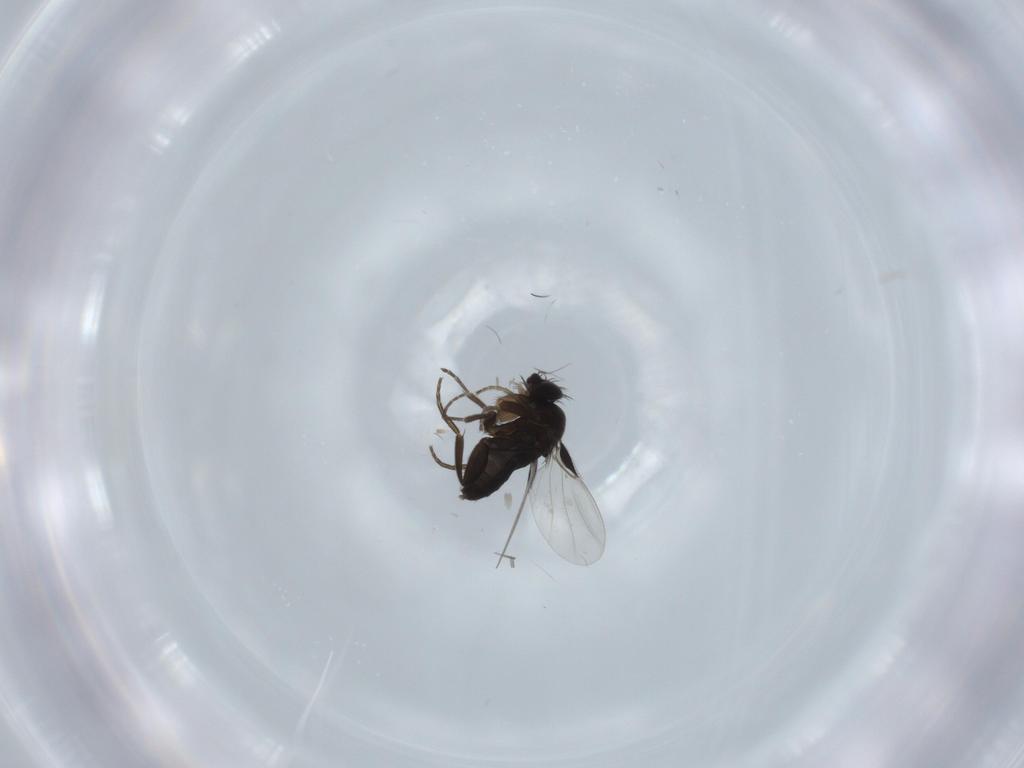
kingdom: Animalia
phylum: Arthropoda
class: Insecta
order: Diptera
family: Phoridae
